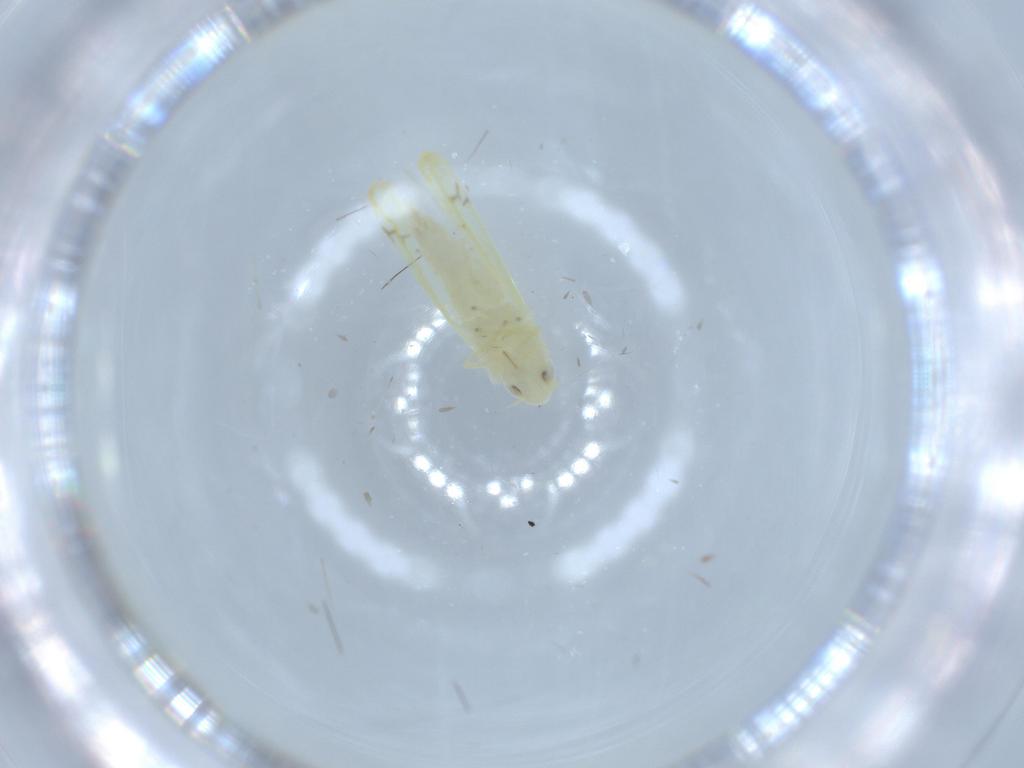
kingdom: Animalia
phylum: Arthropoda
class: Insecta
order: Hemiptera
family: Cicadellidae
